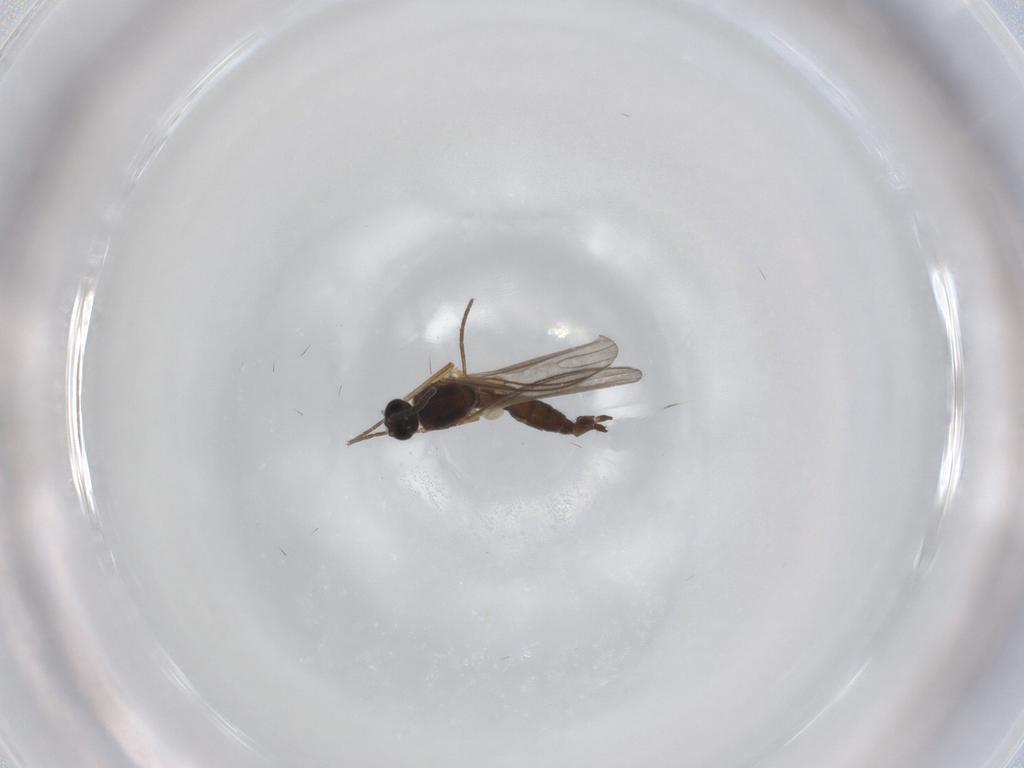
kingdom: Animalia
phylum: Arthropoda
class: Insecta
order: Diptera
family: Sciaridae
